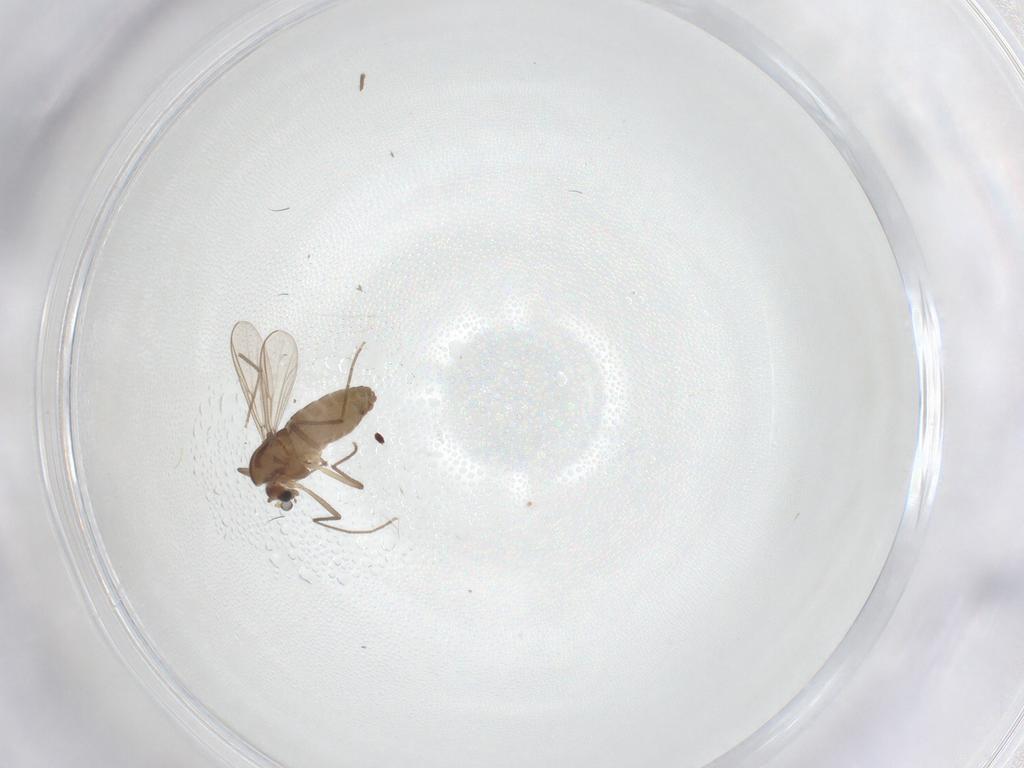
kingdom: Animalia
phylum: Arthropoda
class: Insecta
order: Diptera
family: Chironomidae
